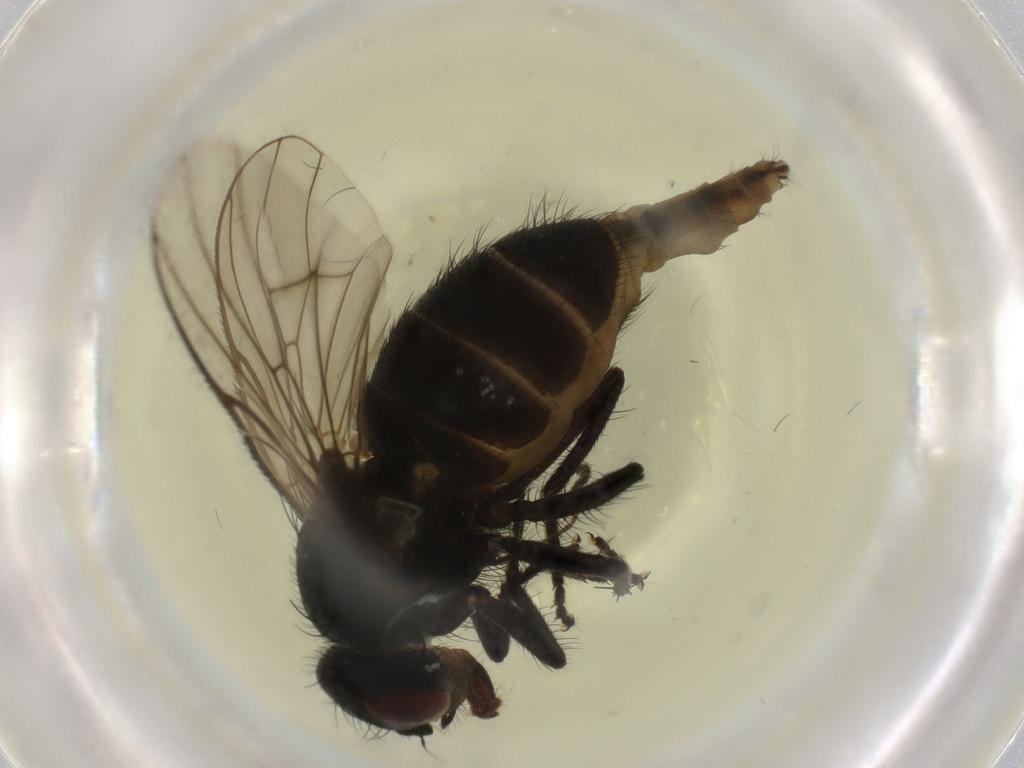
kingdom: Animalia
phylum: Arthropoda
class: Insecta
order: Diptera
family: Muscidae
